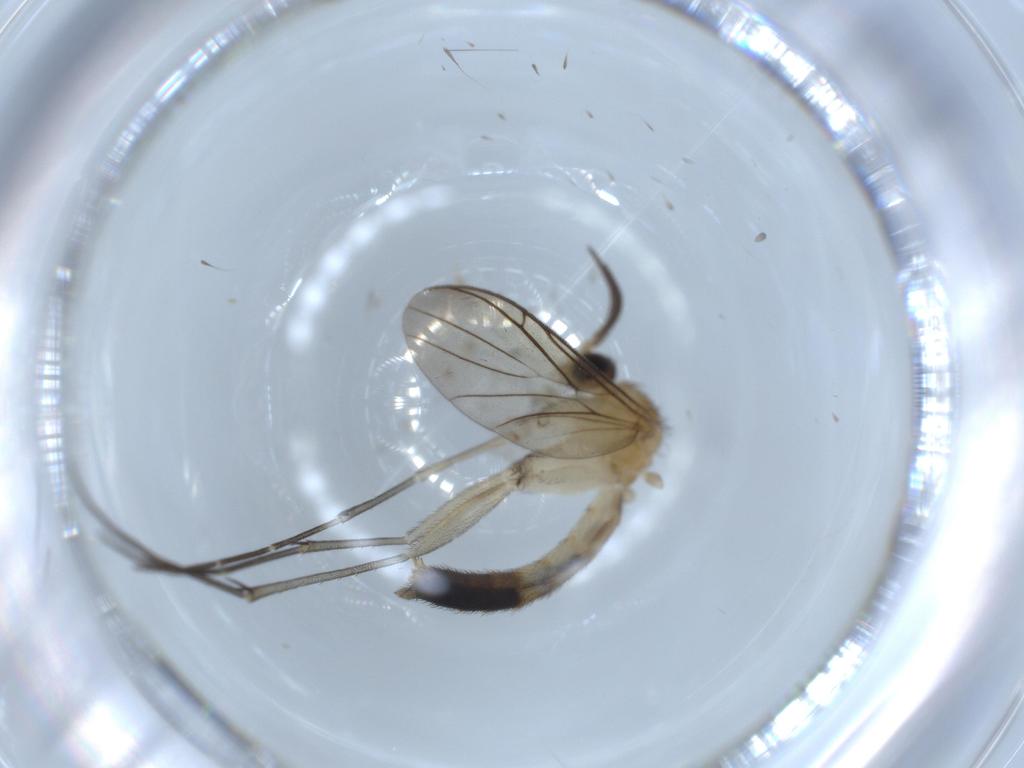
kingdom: Animalia
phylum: Arthropoda
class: Insecta
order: Diptera
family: Keroplatidae
